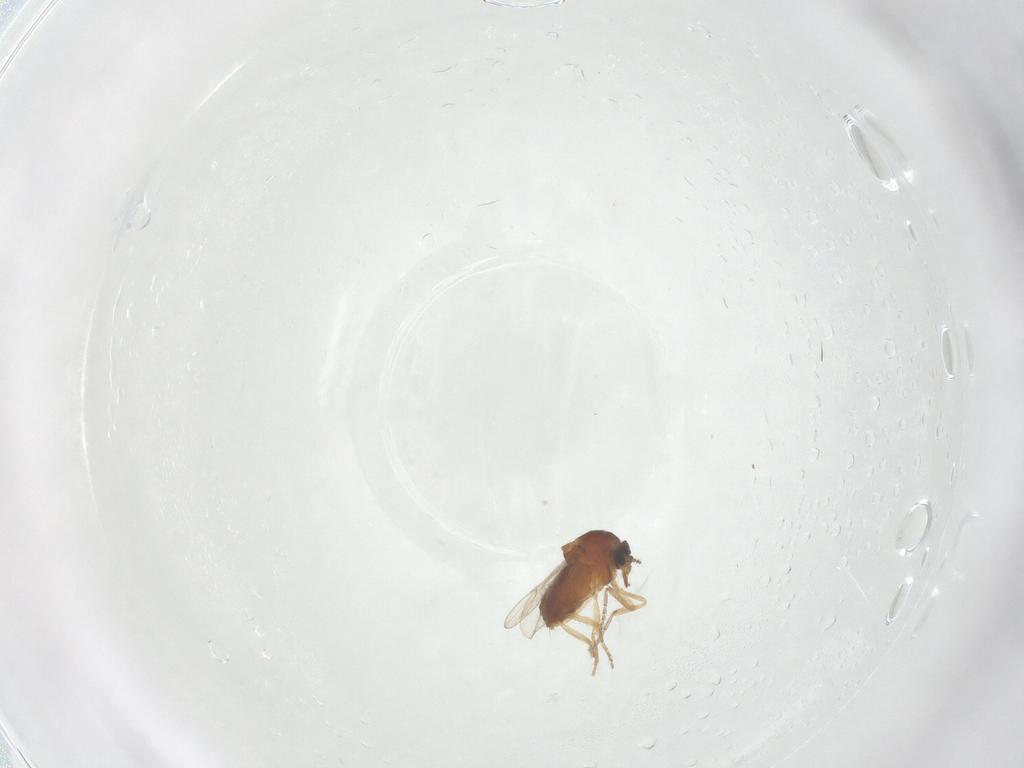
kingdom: Animalia
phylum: Arthropoda
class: Insecta
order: Diptera
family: Ceratopogonidae
